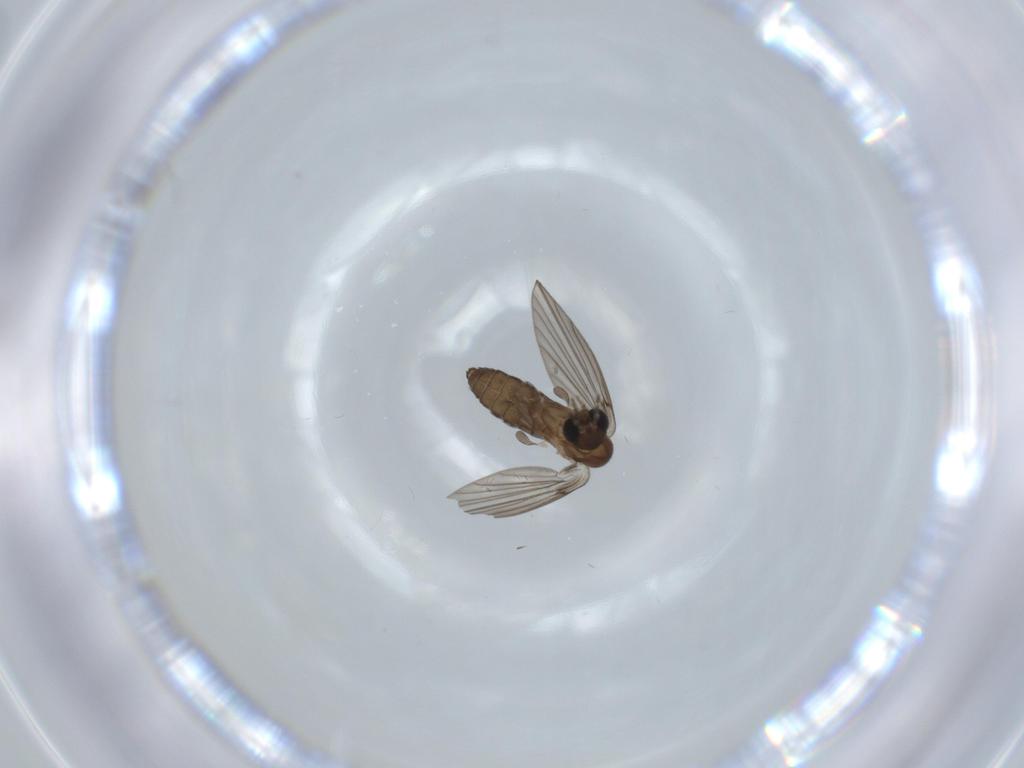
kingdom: Animalia
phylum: Arthropoda
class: Insecta
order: Diptera
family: Psychodidae
